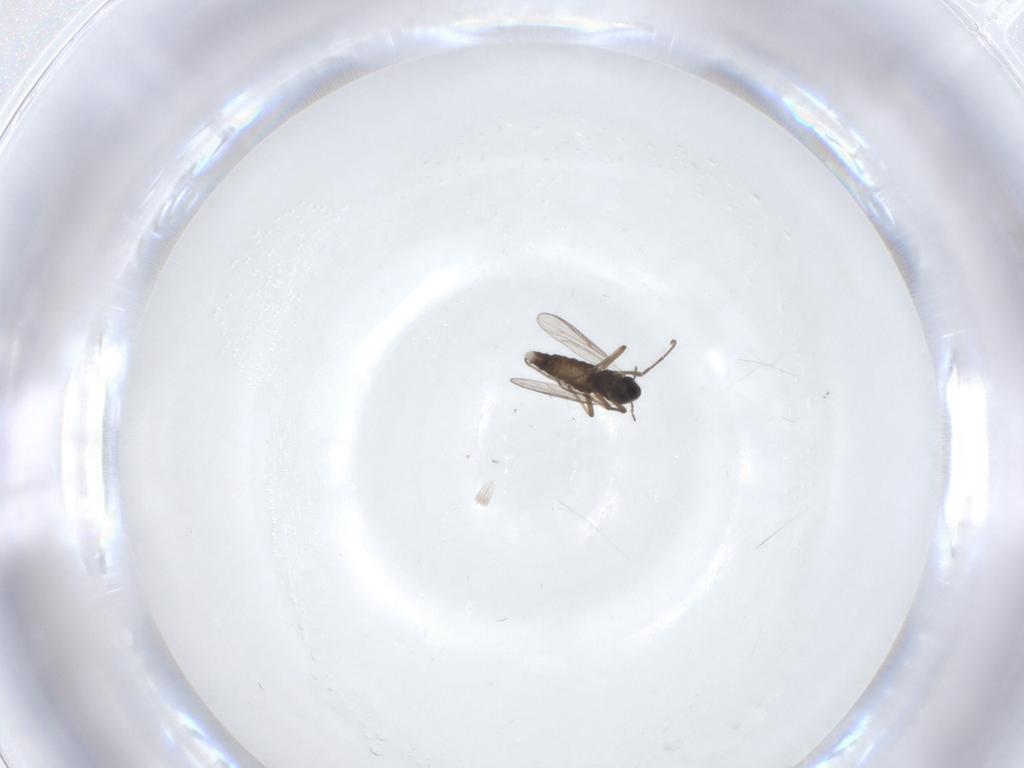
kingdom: Animalia
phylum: Arthropoda
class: Insecta
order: Diptera
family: Chironomidae
